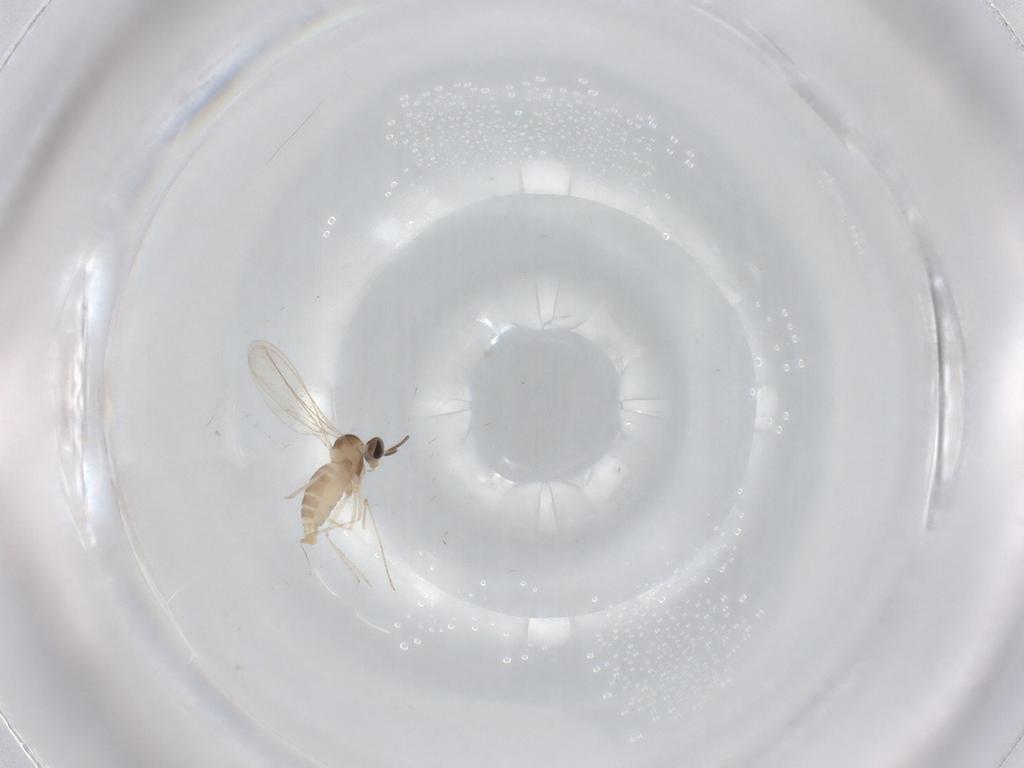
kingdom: Animalia
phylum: Arthropoda
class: Insecta
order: Diptera
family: Cecidomyiidae
